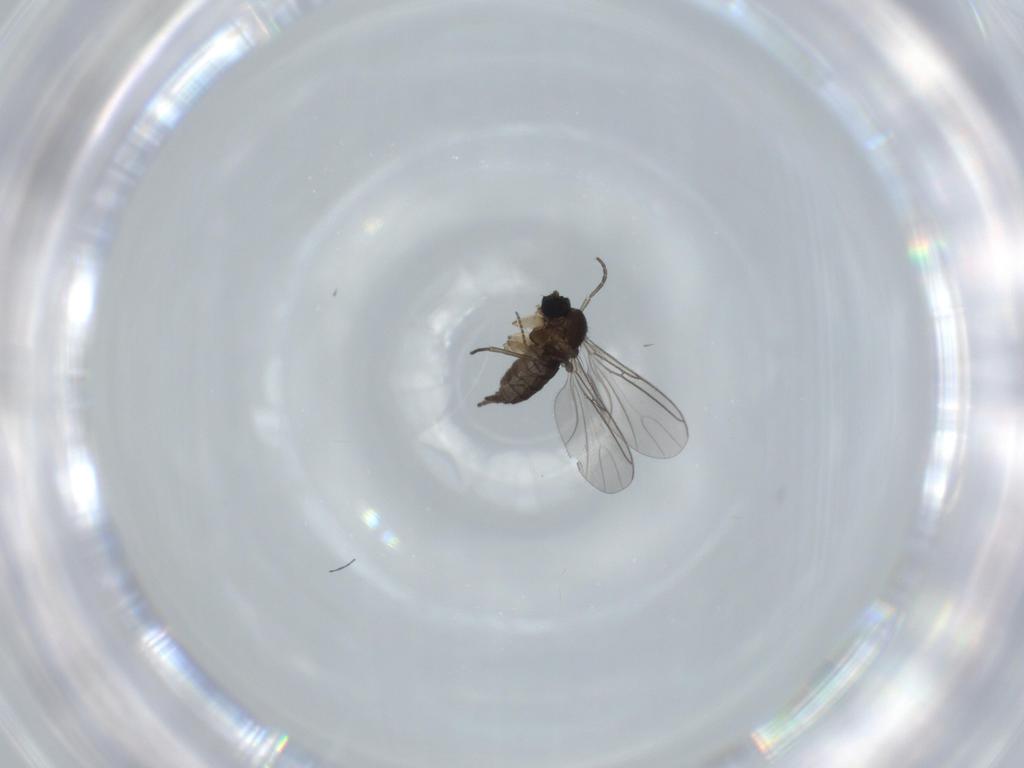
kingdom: Animalia
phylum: Arthropoda
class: Insecta
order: Diptera
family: Sciaridae
